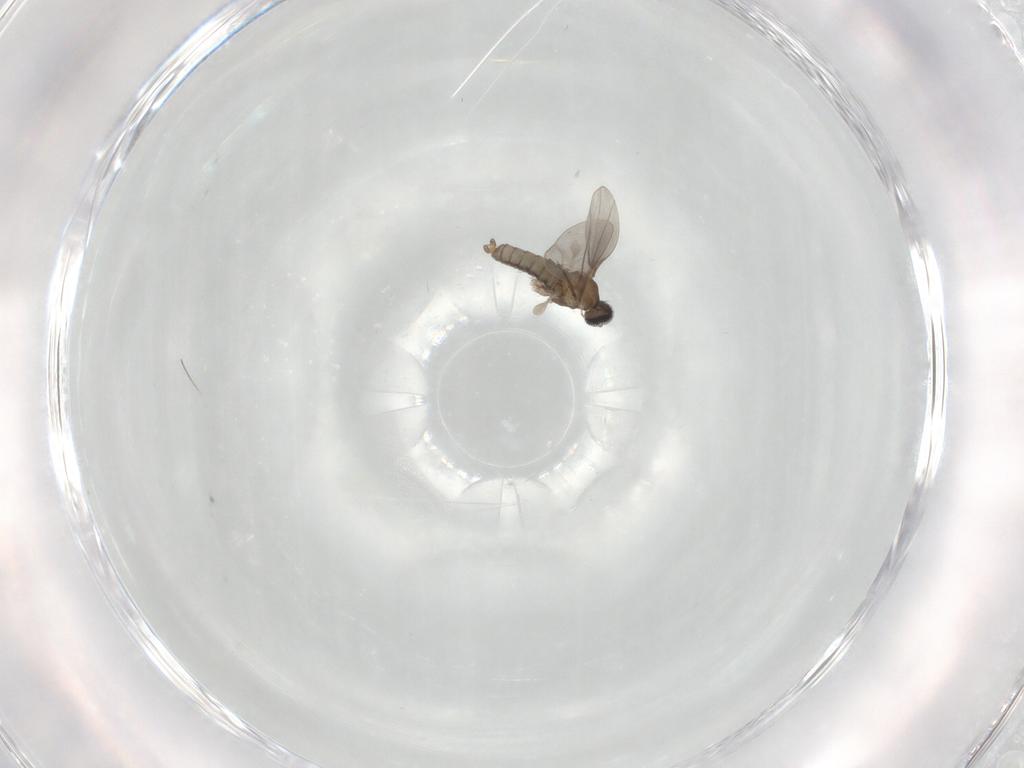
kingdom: Animalia
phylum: Arthropoda
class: Insecta
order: Diptera
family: Cecidomyiidae
